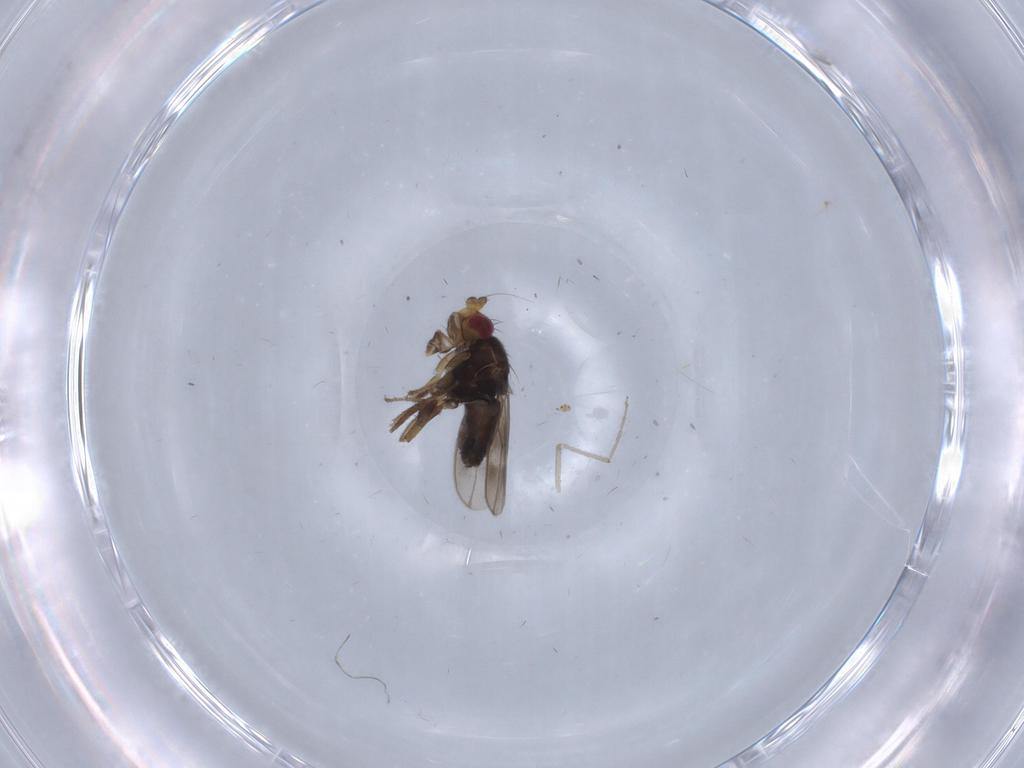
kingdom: Animalia
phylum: Arthropoda
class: Insecta
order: Diptera
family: Sphaeroceridae
